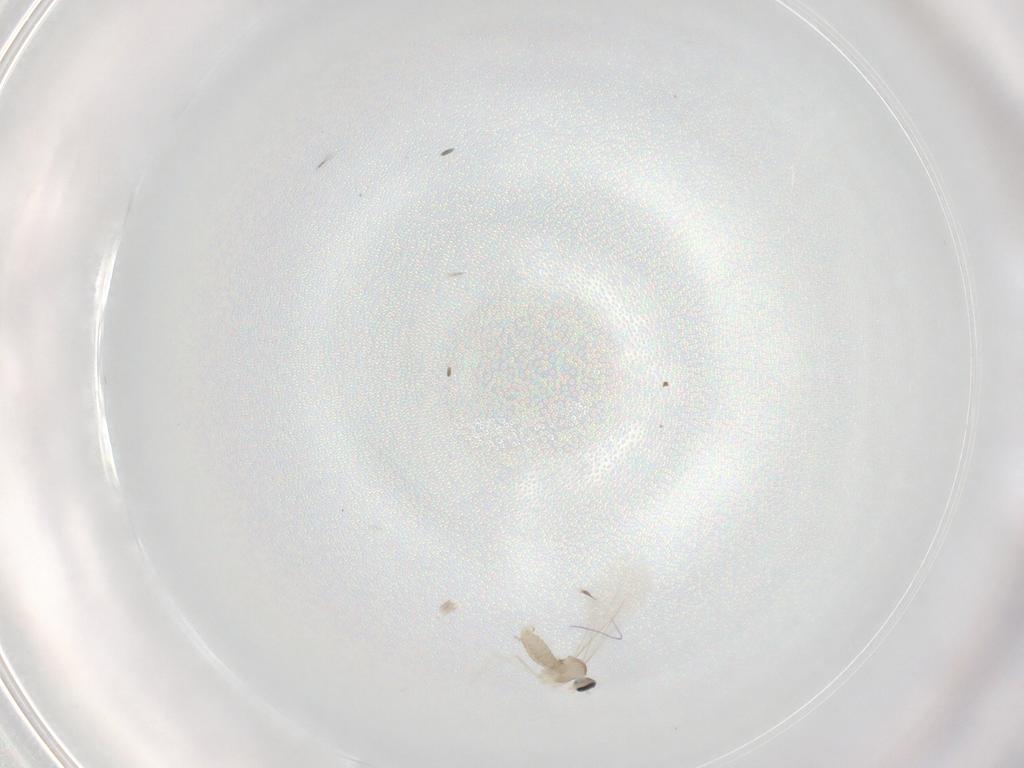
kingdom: Animalia
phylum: Arthropoda
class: Insecta
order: Diptera
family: Cecidomyiidae
